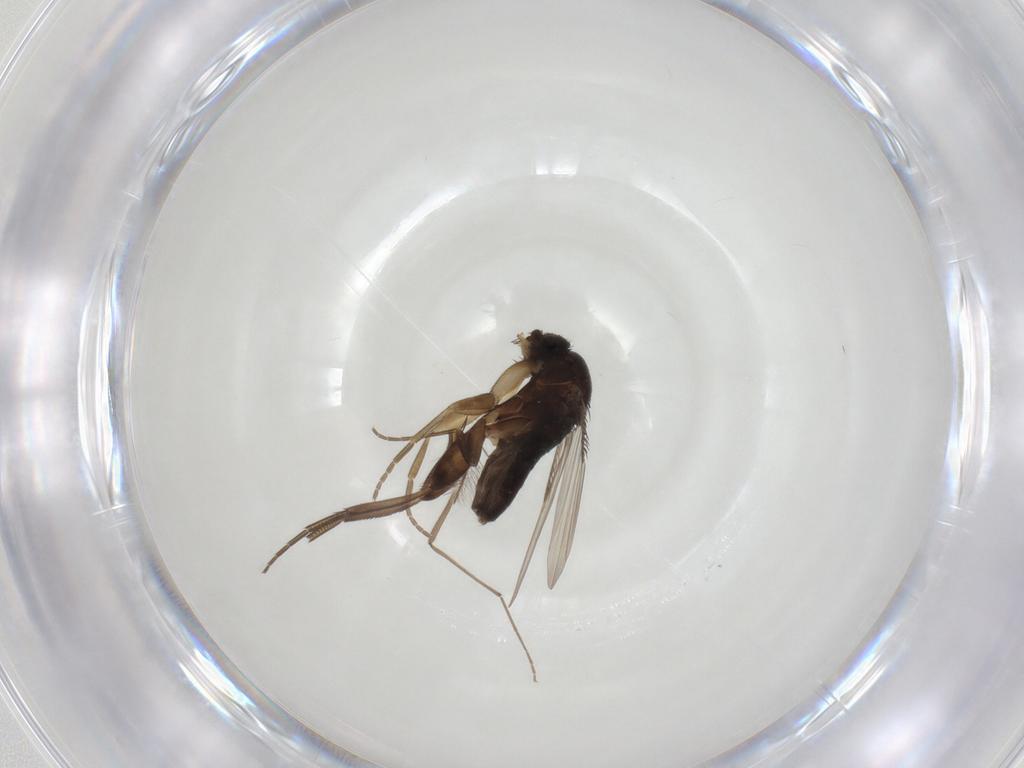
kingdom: Animalia
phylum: Arthropoda
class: Insecta
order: Diptera
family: Phoridae
